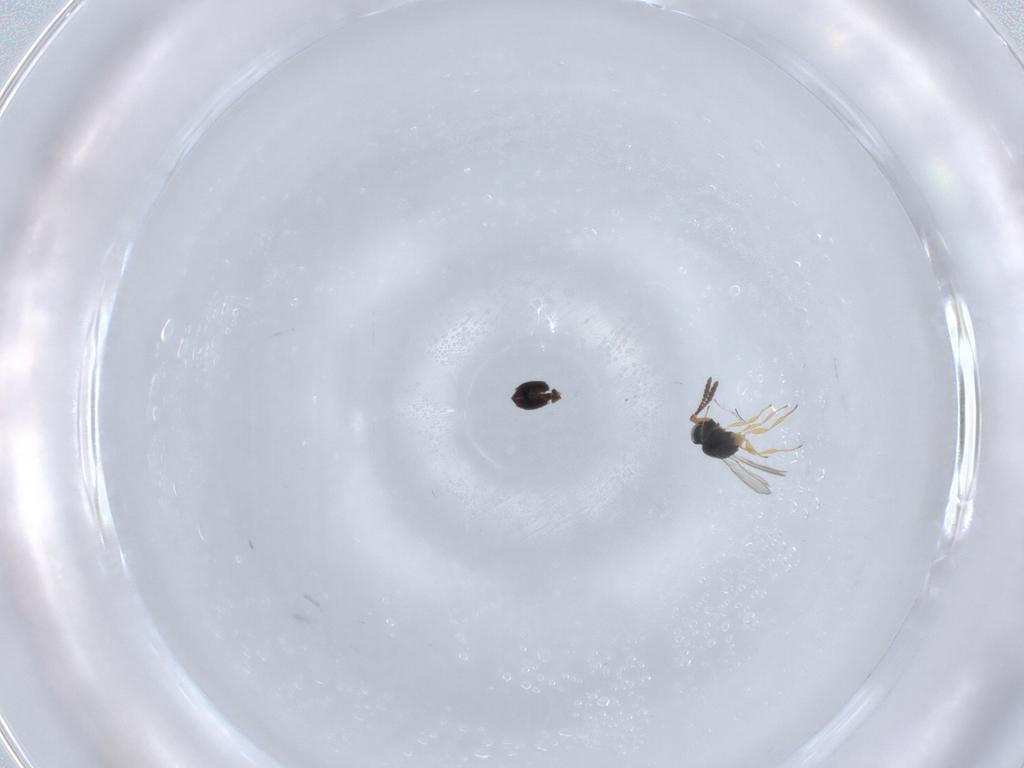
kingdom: Animalia
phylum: Arthropoda
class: Insecta
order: Hymenoptera
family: Scelionidae
